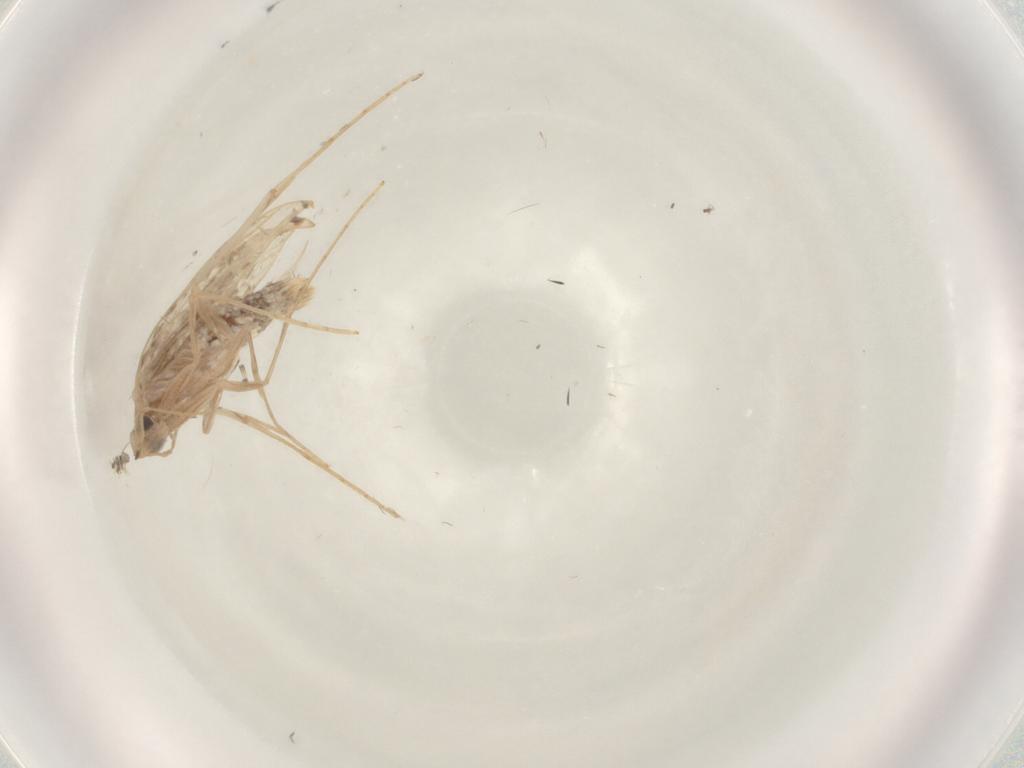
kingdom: Animalia
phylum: Arthropoda
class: Insecta
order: Lepidoptera
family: Tineidae
